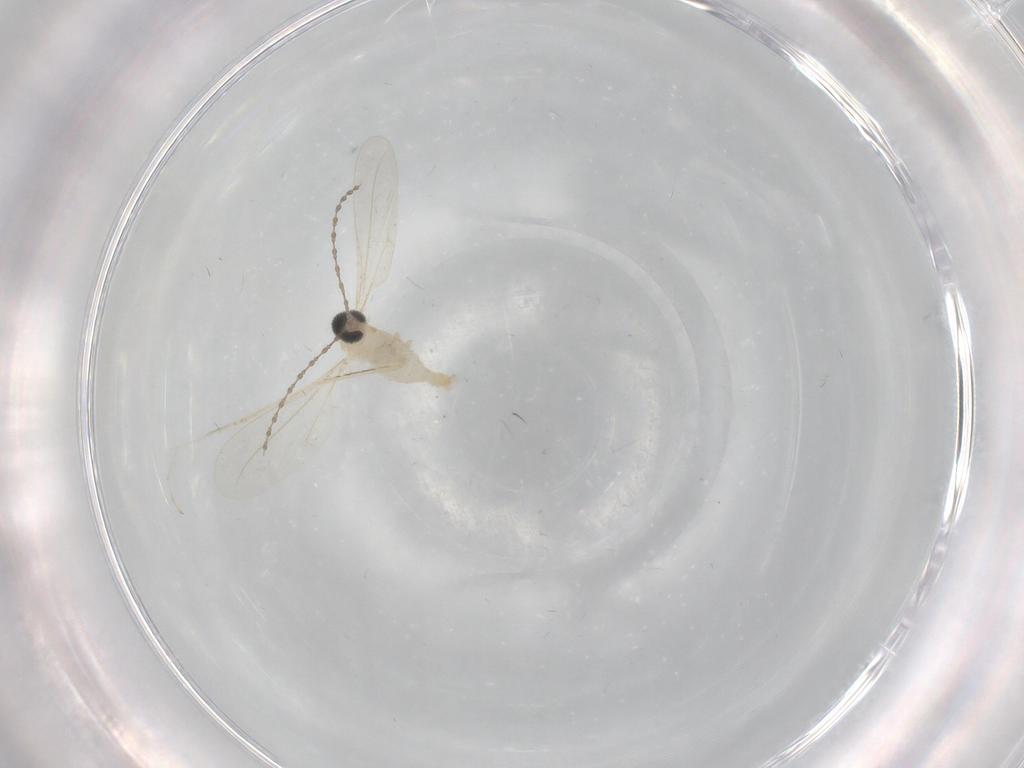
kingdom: Animalia
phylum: Arthropoda
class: Insecta
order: Diptera
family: Cecidomyiidae
